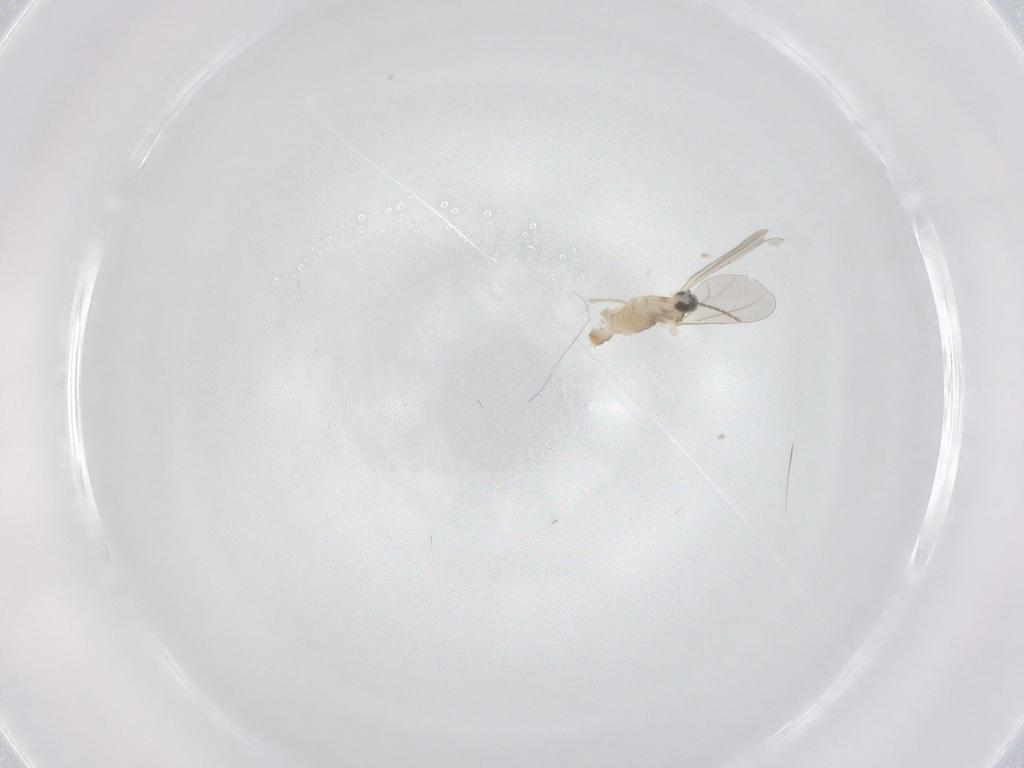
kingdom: Animalia
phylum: Arthropoda
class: Insecta
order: Diptera
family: Cecidomyiidae
